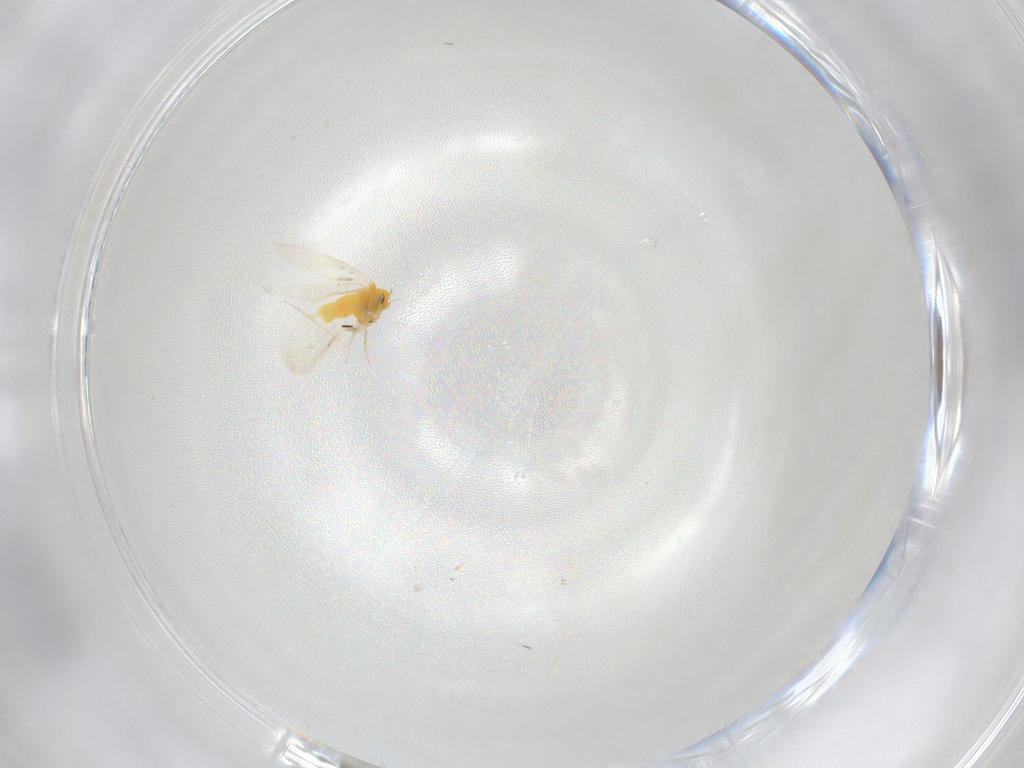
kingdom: Animalia
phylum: Arthropoda
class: Insecta
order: Hemiptera
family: Aleyrodidae
